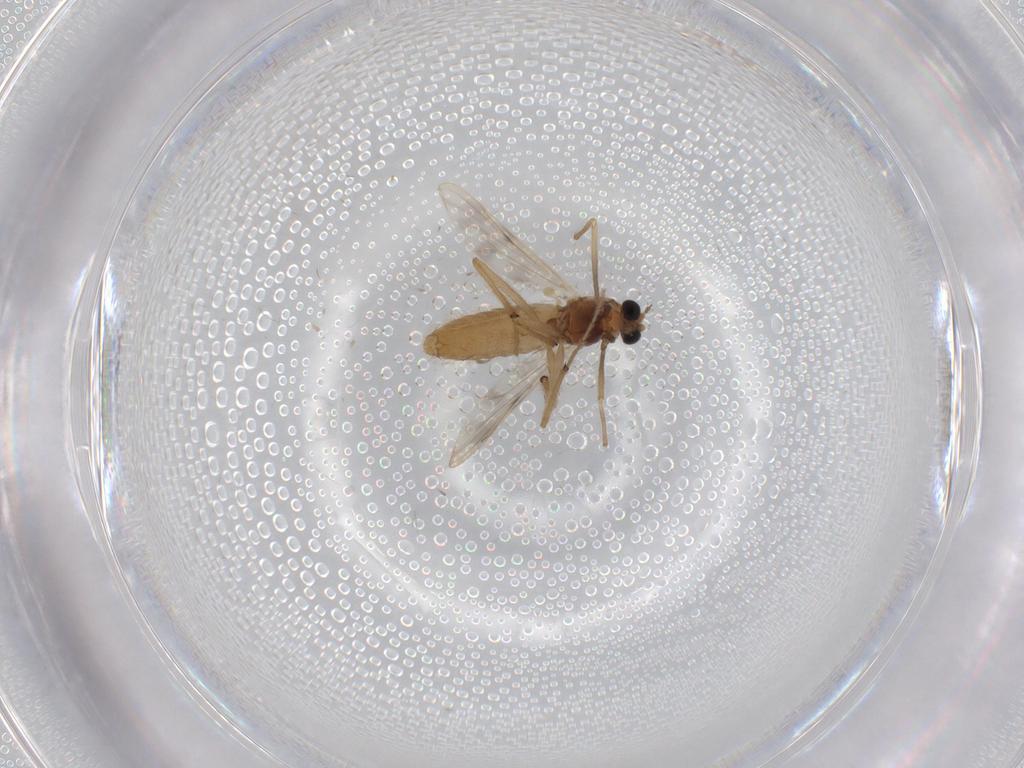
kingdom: Animalia
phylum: Arthropoda
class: Insecta
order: Diptera
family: Chironomidae
